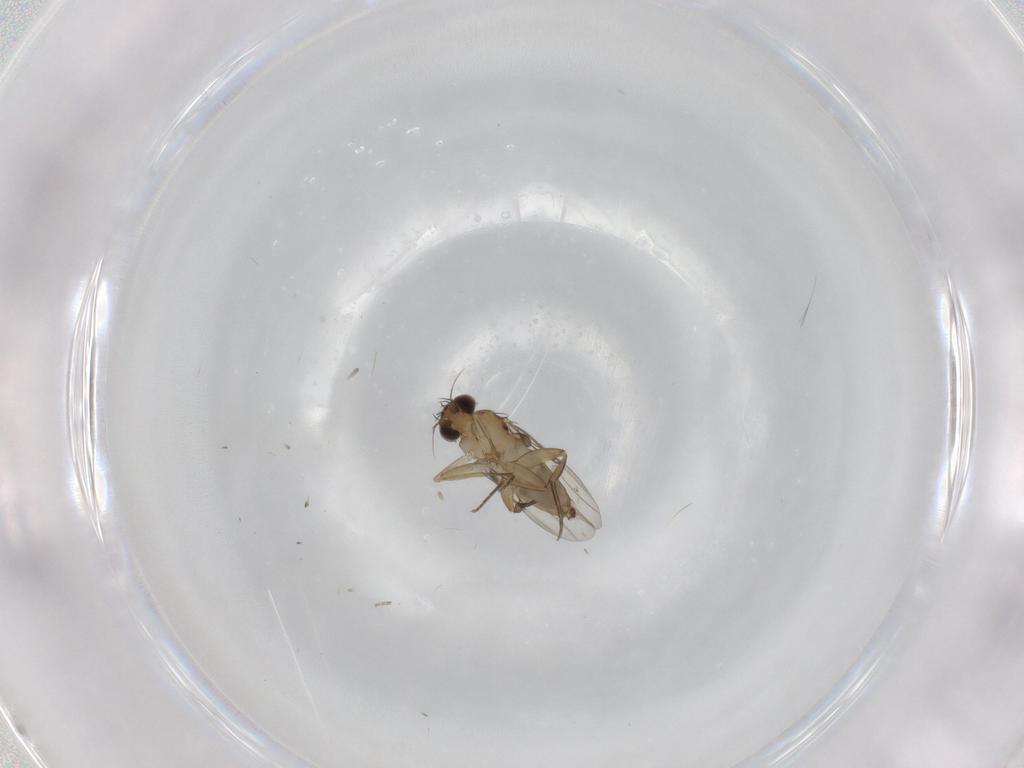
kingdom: Animalia
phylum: Arthropoda
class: Insecta
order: Diptera
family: Phoridae
